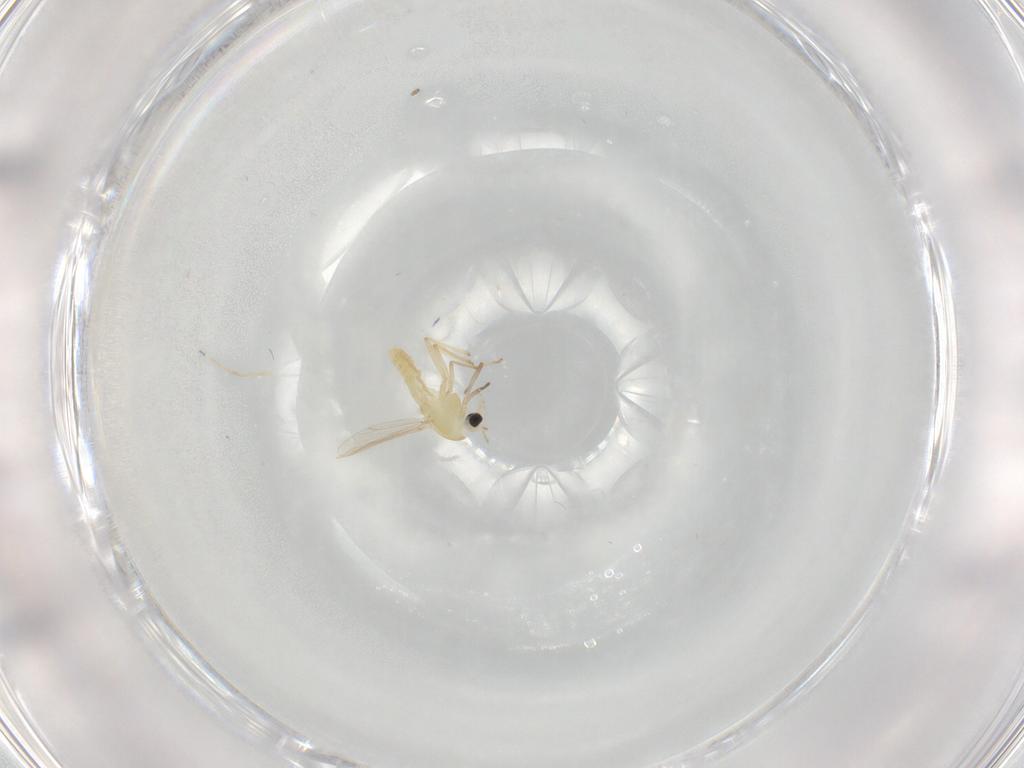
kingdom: Animalia
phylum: Arthropoda
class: Insecta
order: Diptera
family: Chironomidae
